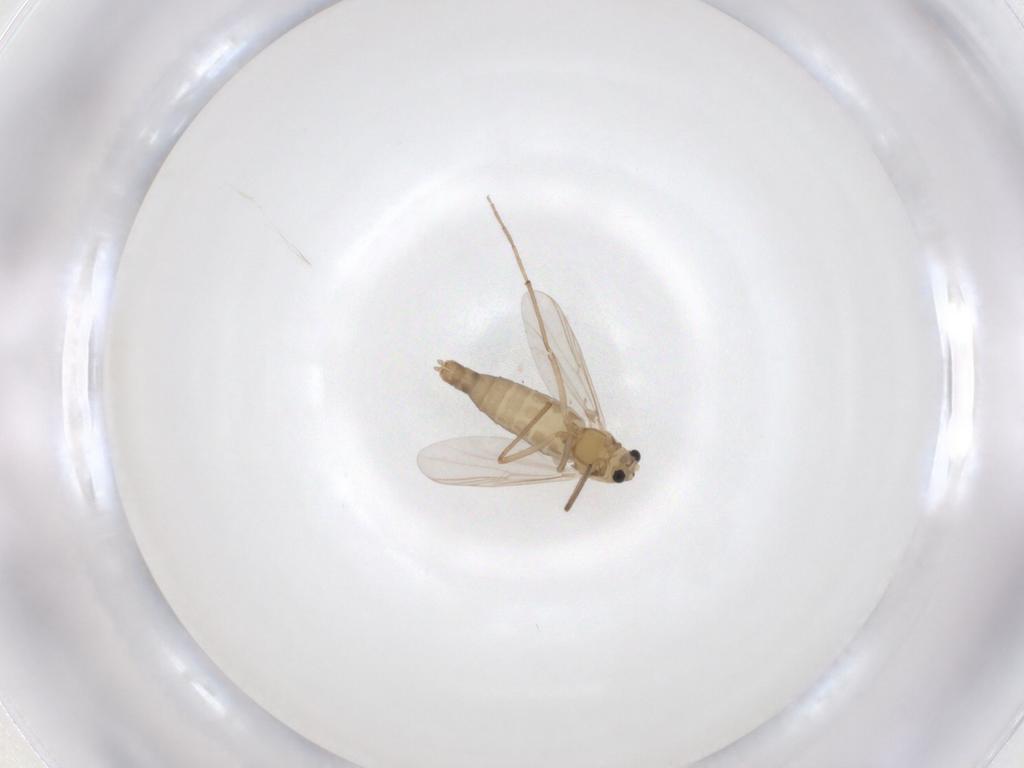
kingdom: Animalia
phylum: Arthropoda
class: Insecta
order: Diptera
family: Chironomidae
